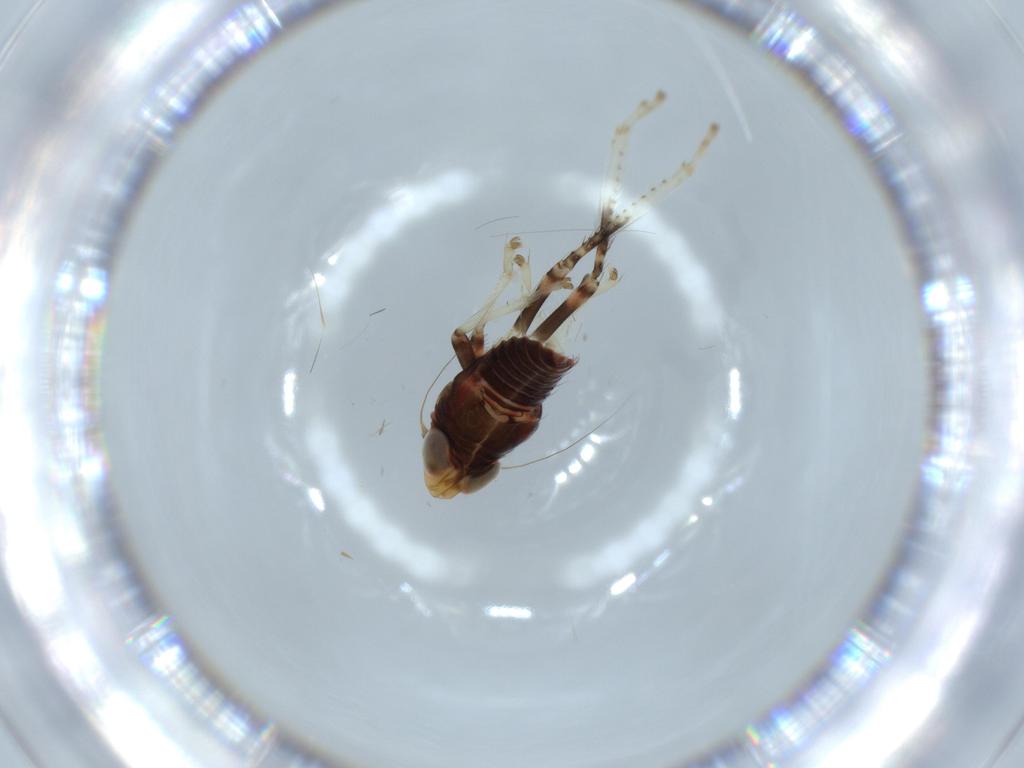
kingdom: Animalia
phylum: Arthropoda
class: Insecta
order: Hemiptera
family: Cicadellidae
